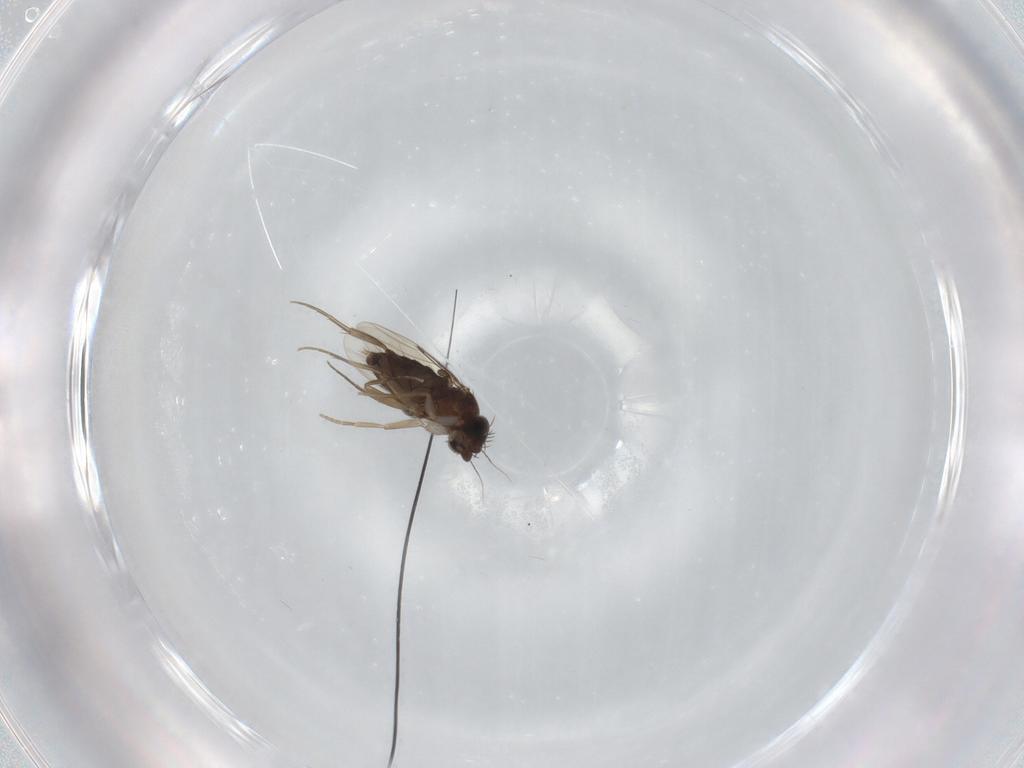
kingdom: Animalia
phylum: Arthropoda
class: Insecta
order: Diptera
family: Phoridae
